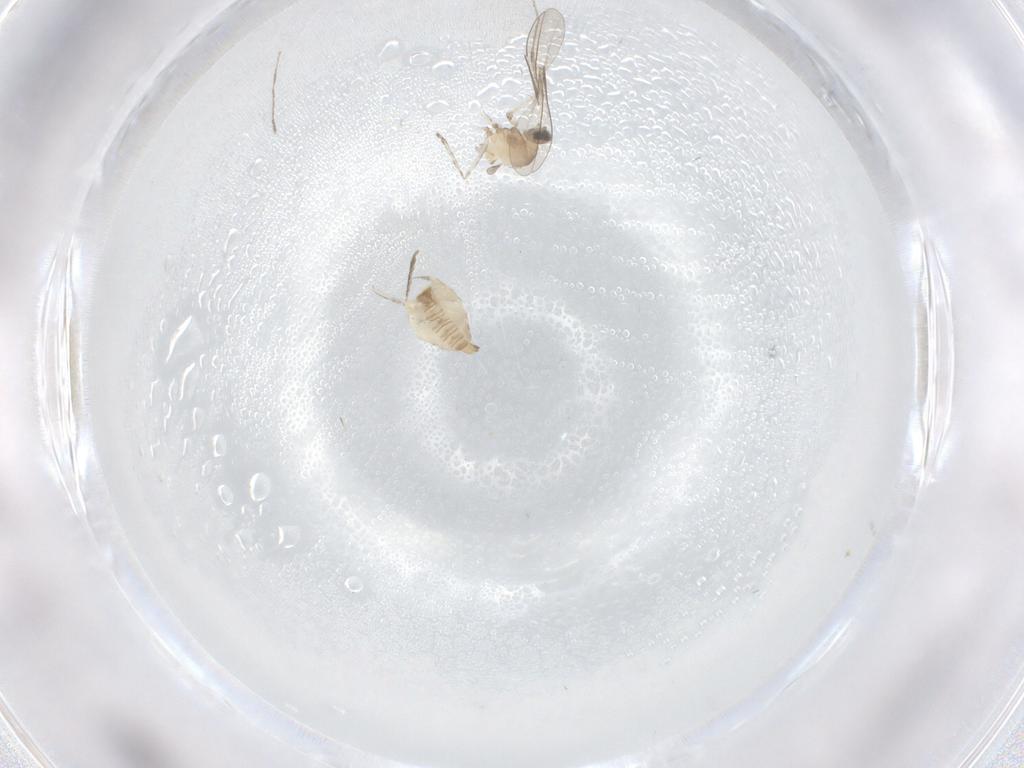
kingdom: Animalia
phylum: Arthropoda
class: Insecta
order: Diptera
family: Cecidomyiidae
